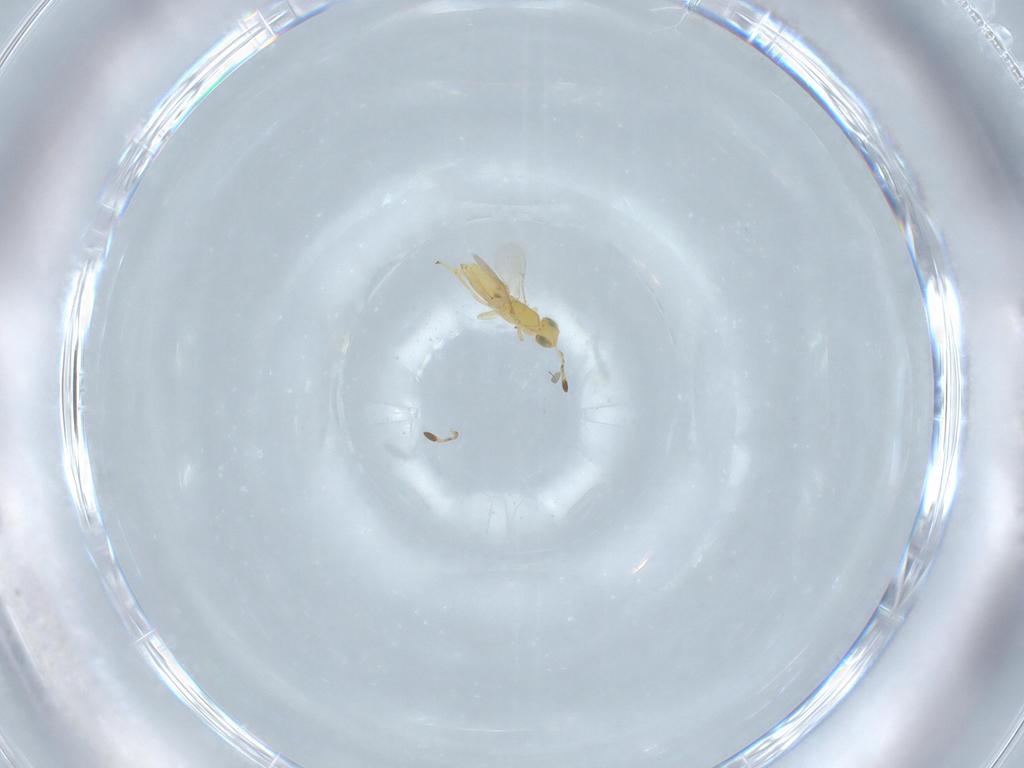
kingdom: Animalia
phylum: Arthropoda
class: Insecta
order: Hymenoptera
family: Encyrtidae
